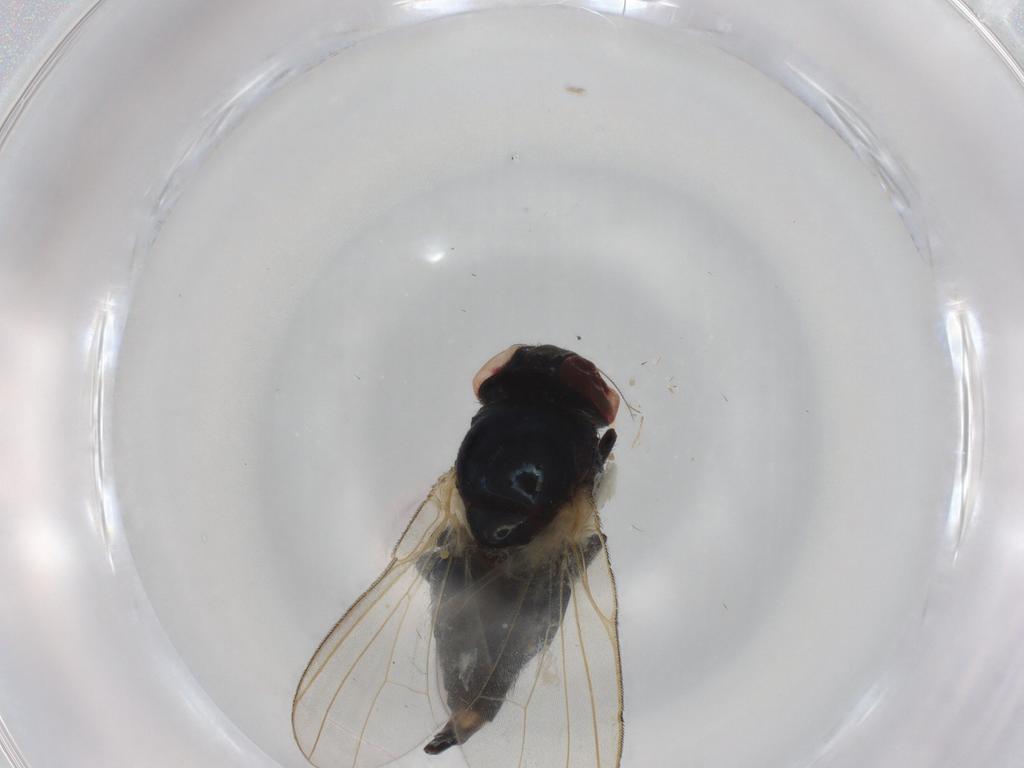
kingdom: Animalia
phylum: Arthropoda
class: Insecta
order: Diptera
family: Lonchaeidae
